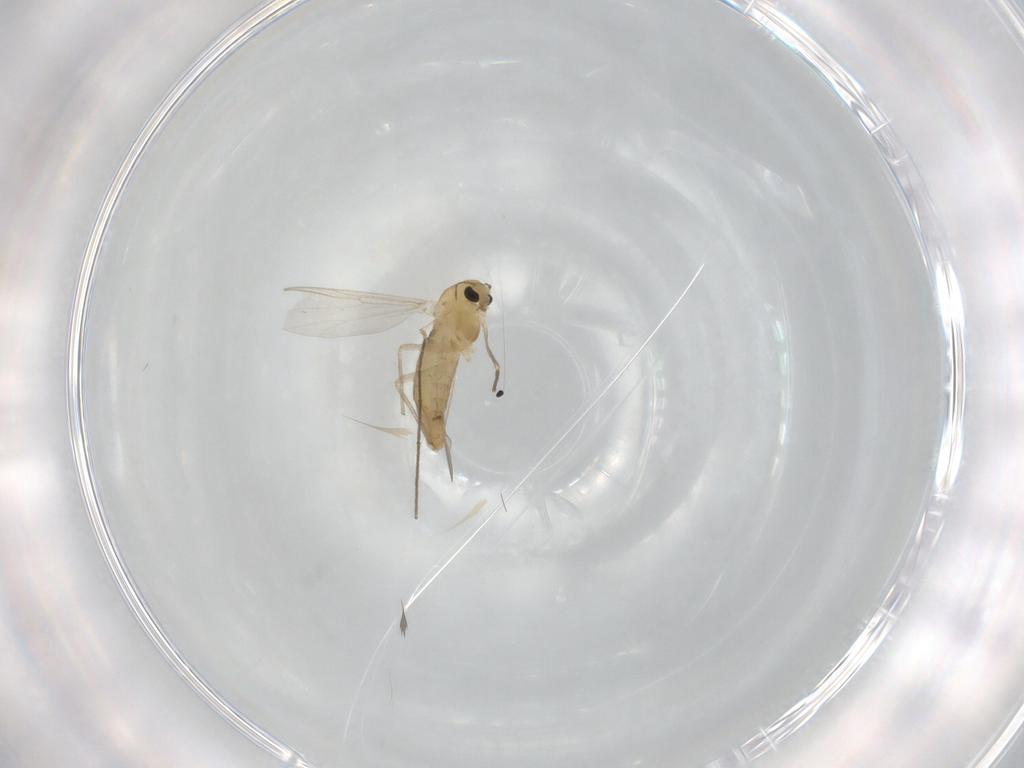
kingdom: Animalia
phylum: Arthropoda
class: Insecta
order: Diptera
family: Chironomidae
